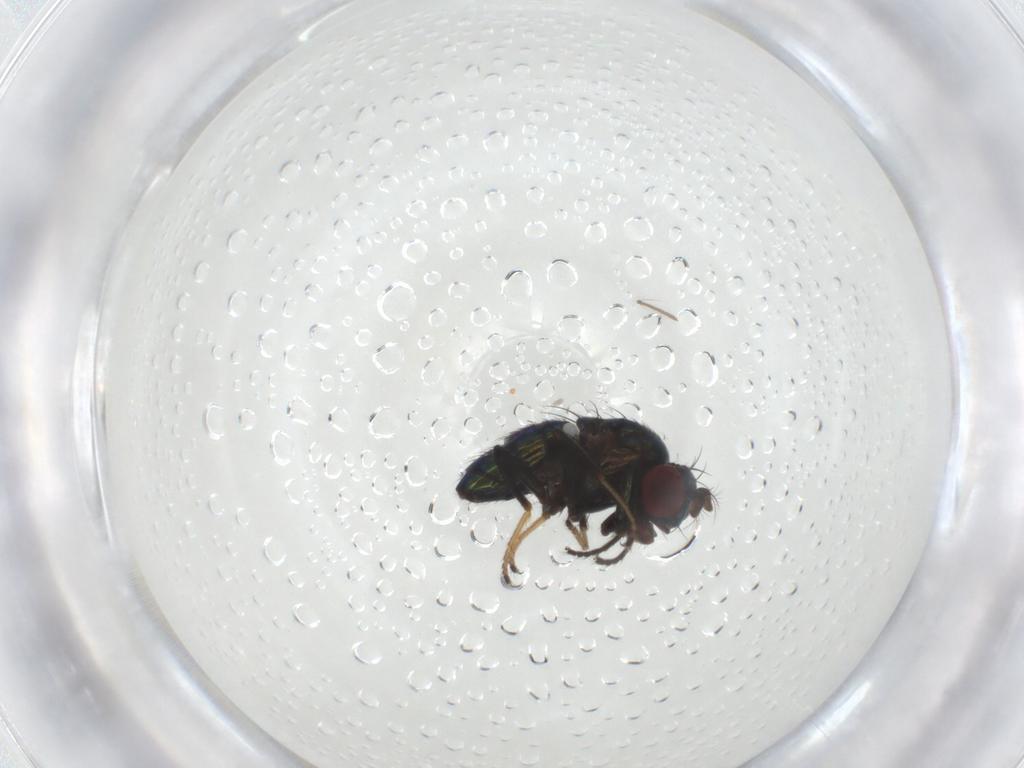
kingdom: Animalia
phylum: Arthropoda
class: Insecta
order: Diptera
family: Ephydridae
